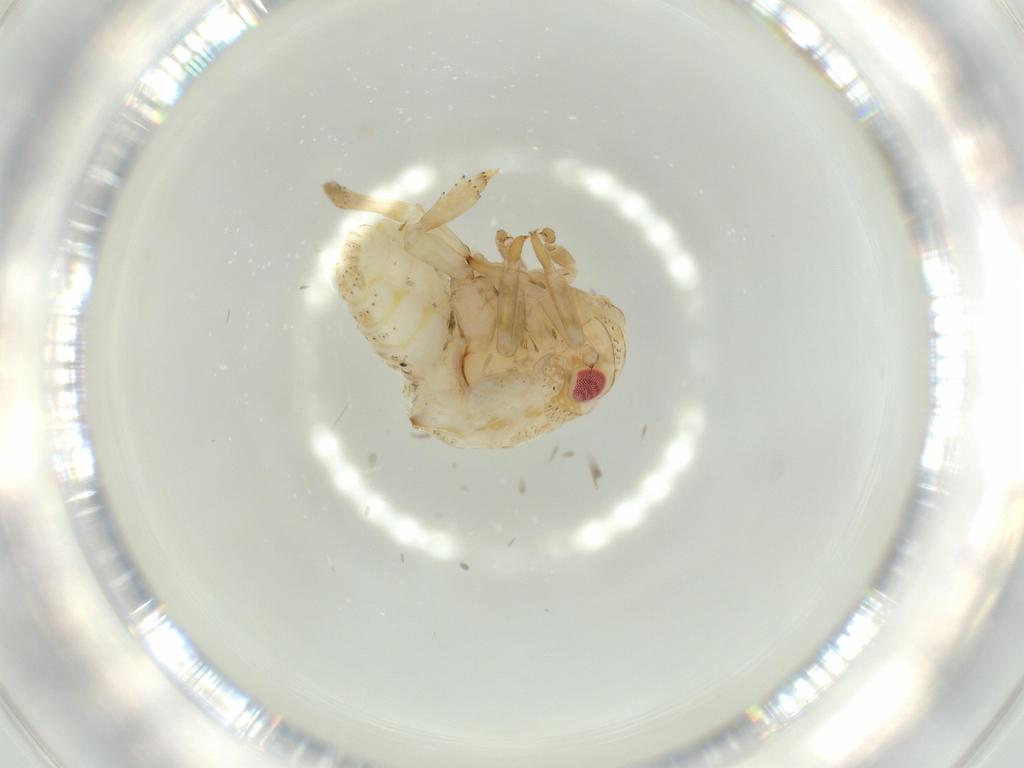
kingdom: Animalia
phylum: Arthropoda
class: Insecta
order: Hemiptera
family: Acanaloniidae
